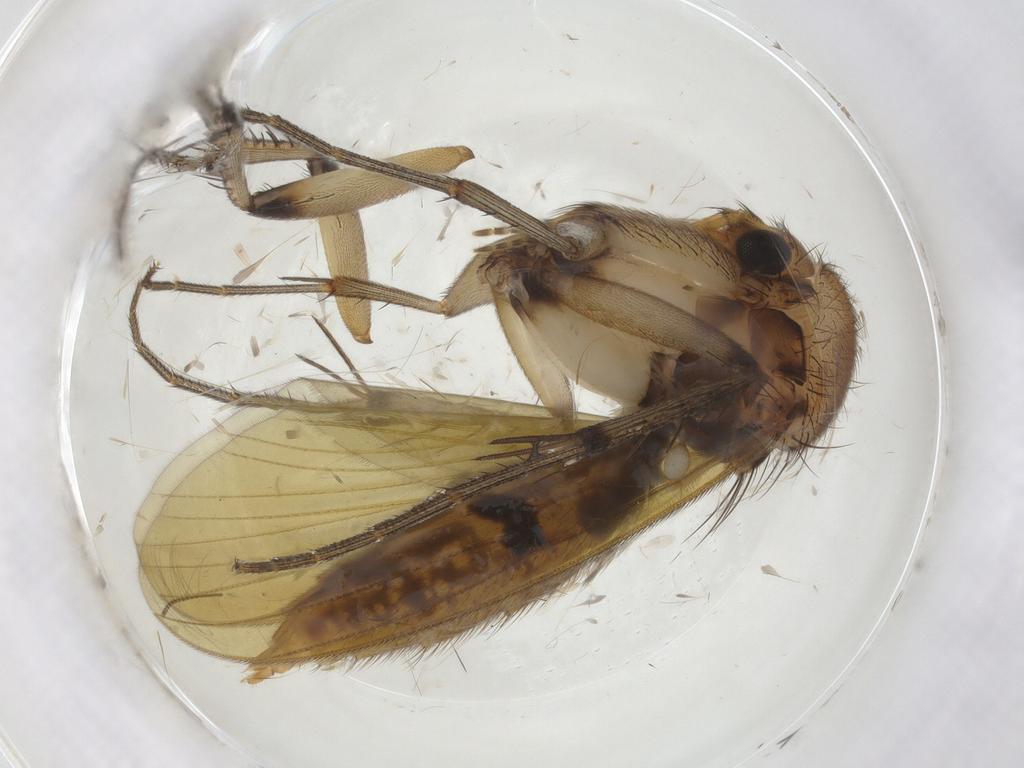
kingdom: Animalia
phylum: Arthropoda
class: Insecta
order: Diptera
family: Mycetophilidae
